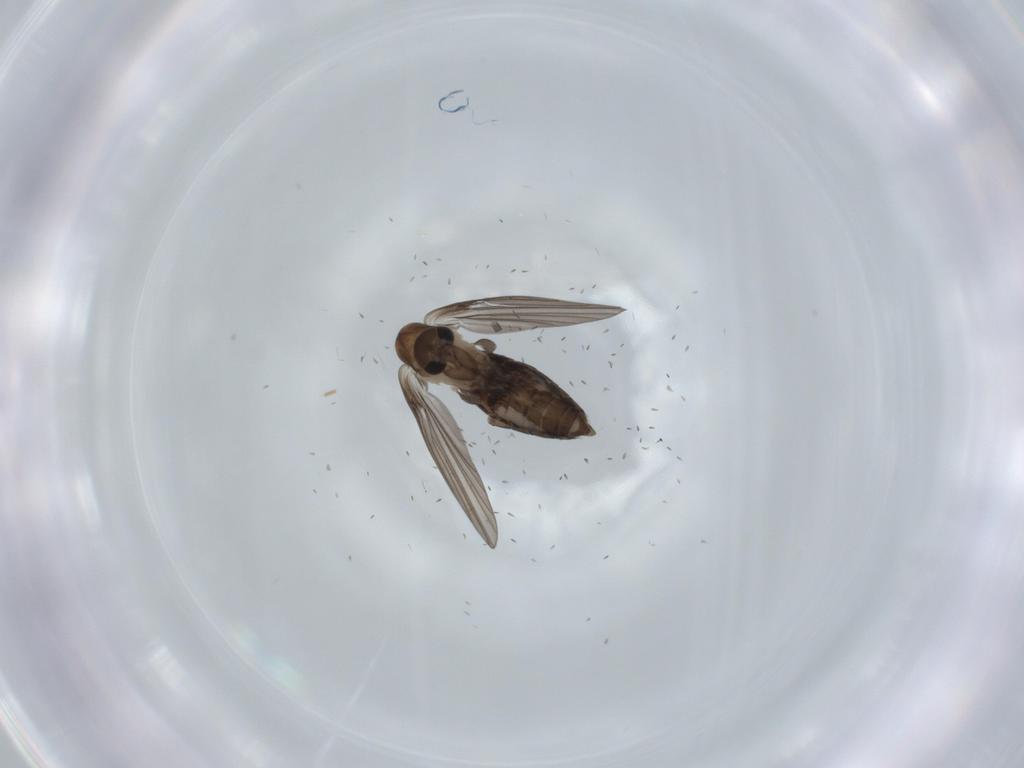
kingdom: Animalia
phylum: Arthropoda
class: Insecta
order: Diptera
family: Psychodidae
